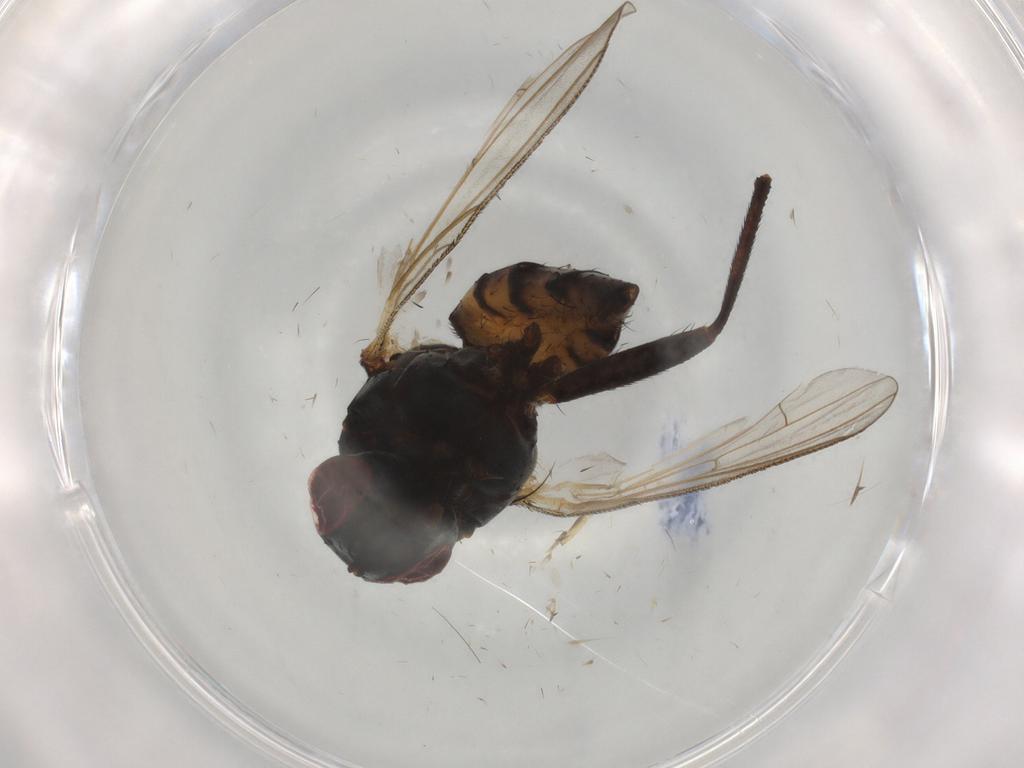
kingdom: Animalia
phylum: Arthropoda
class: Insecta
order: Diptera
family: Anthomyiidae
